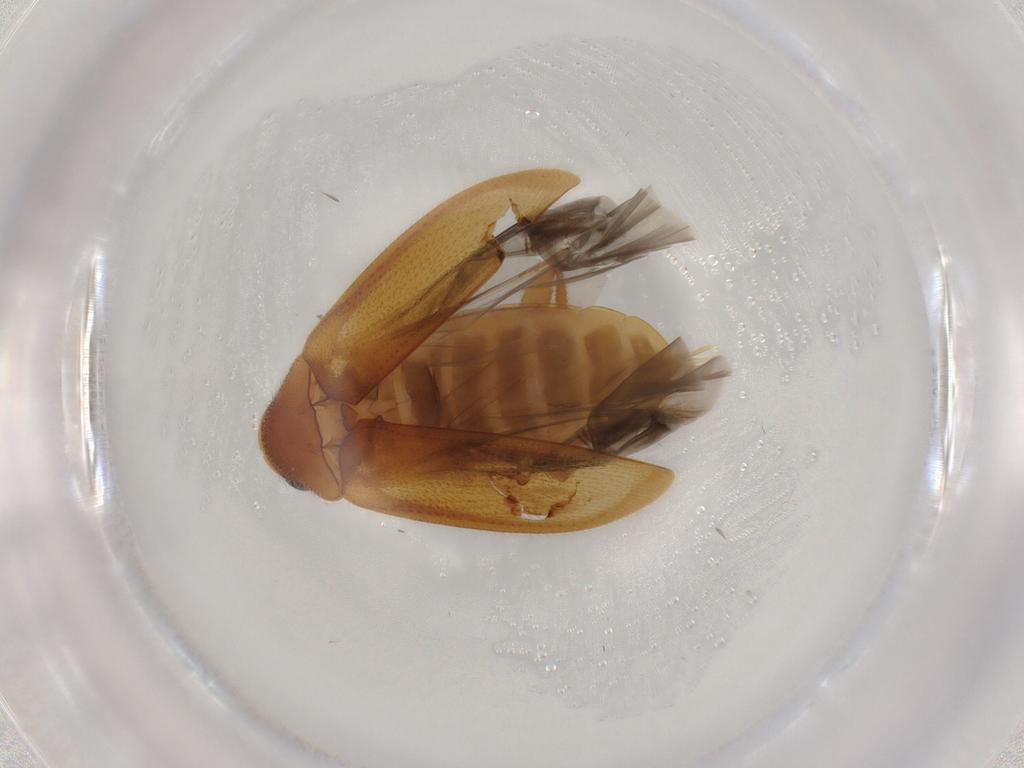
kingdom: Animalia
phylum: Arthropoda
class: Insecta
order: Coleoptera
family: Ptilodactylidae
